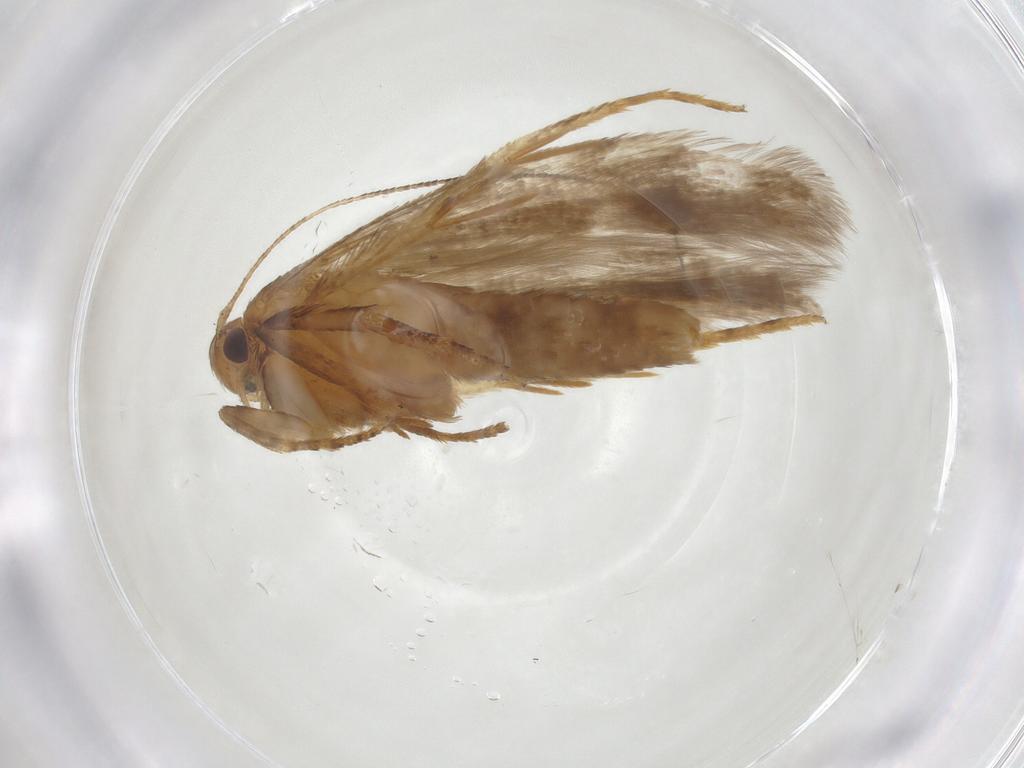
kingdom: Animalia
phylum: Arthropoda
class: Insecta
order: Lepidoptera
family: Gelechiidae
